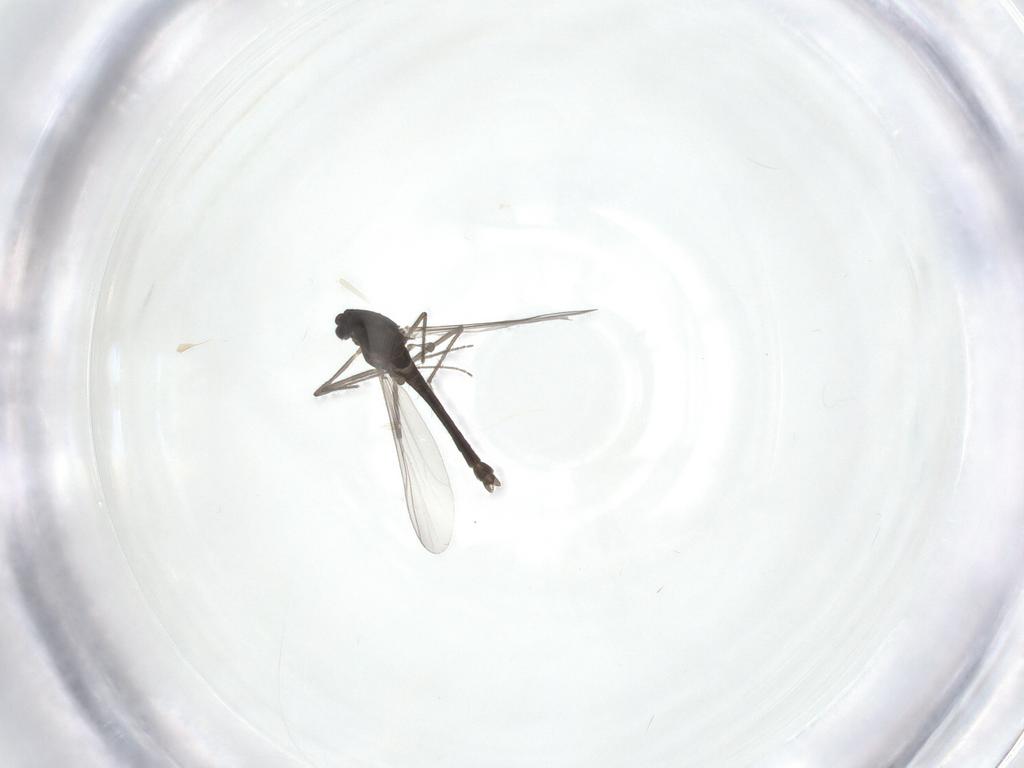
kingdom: Animalia
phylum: Arthropoda
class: Insecta
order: Diptera
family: Chironomidae
